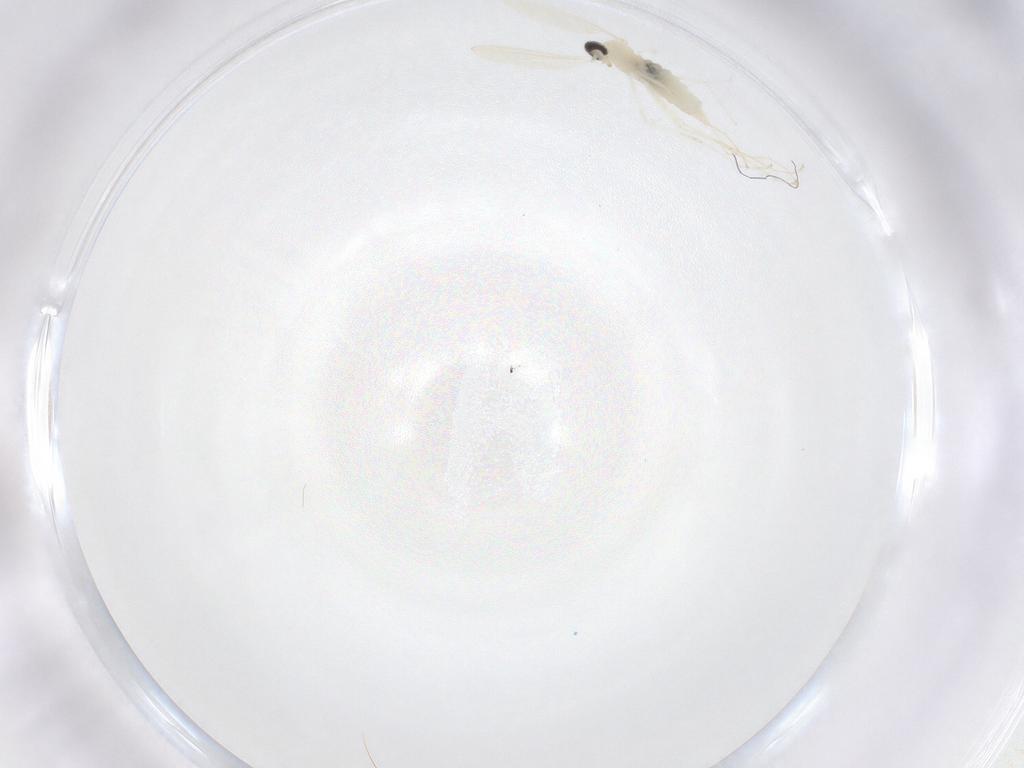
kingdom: Animalia
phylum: Arthropoda
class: Insecta
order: Diptera
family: Cecidomyiidae
